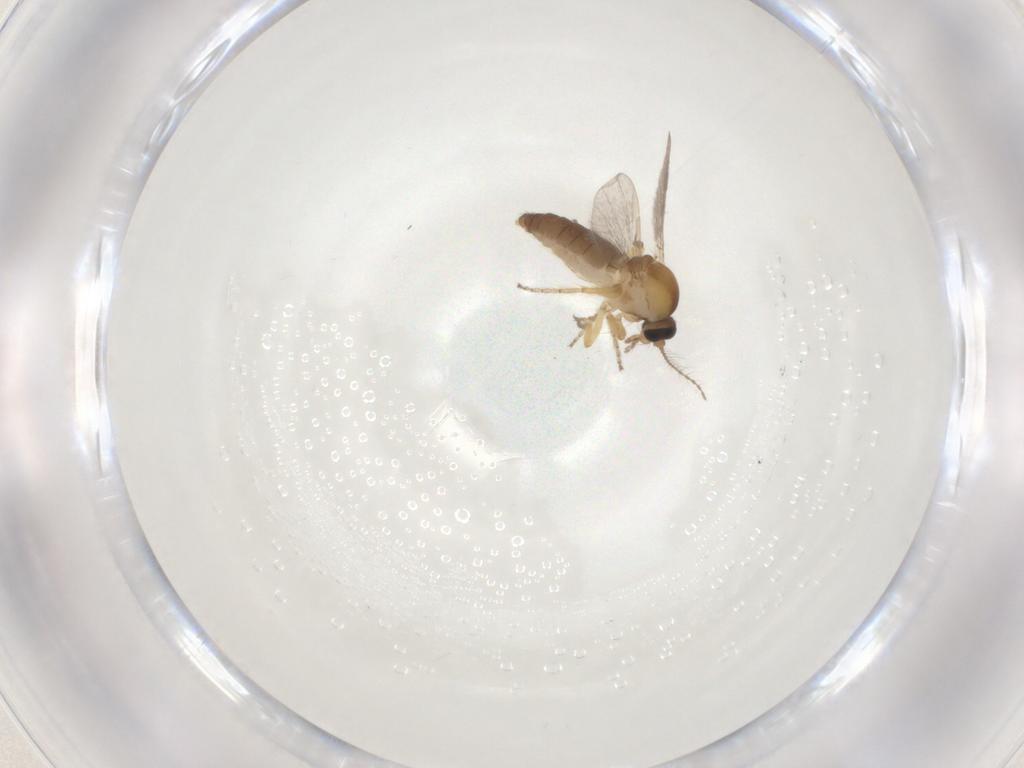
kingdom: Animalia
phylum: Arthropoda
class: Insecta
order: Diptera
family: Ceratopogonidae
